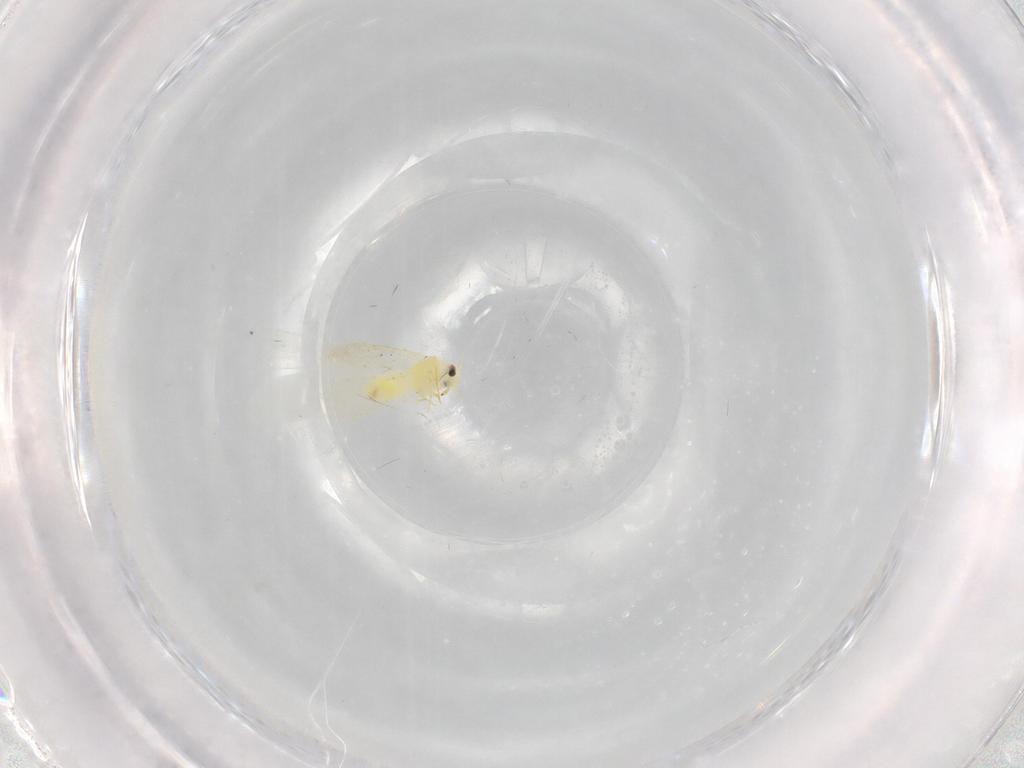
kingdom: Animalia
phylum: Arthropoda
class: Insecta
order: Hemiptera
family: Aleyrodidae
